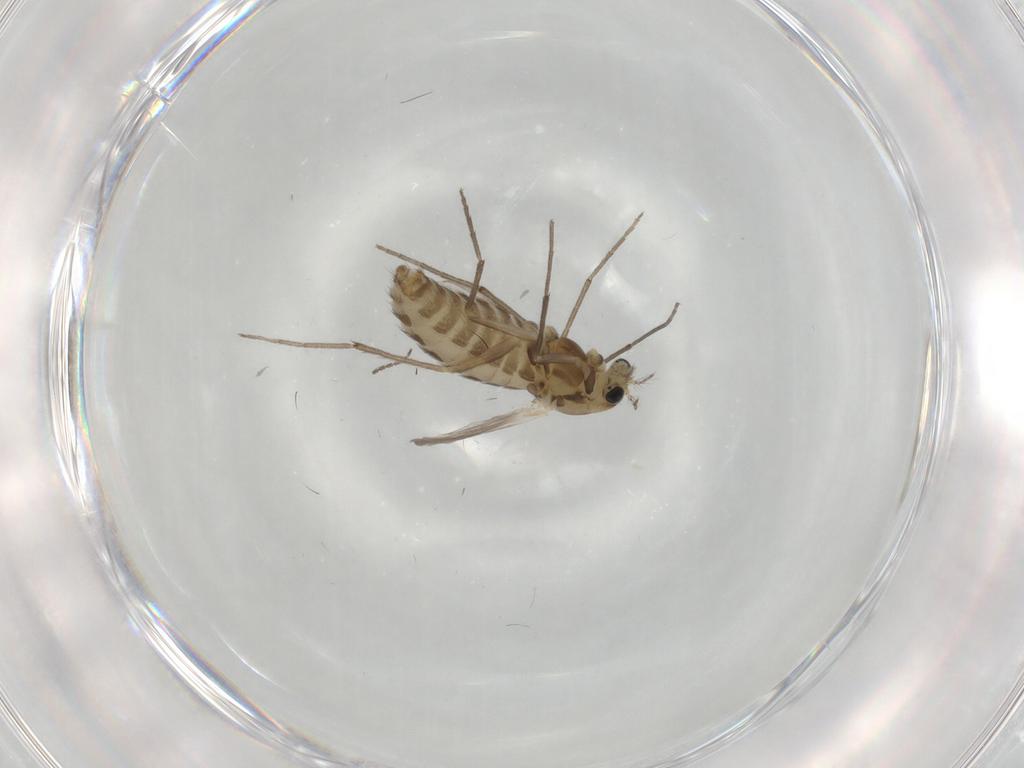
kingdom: Animalia
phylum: Arthropoda
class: Insecta
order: Diptera
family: Chironomidae
